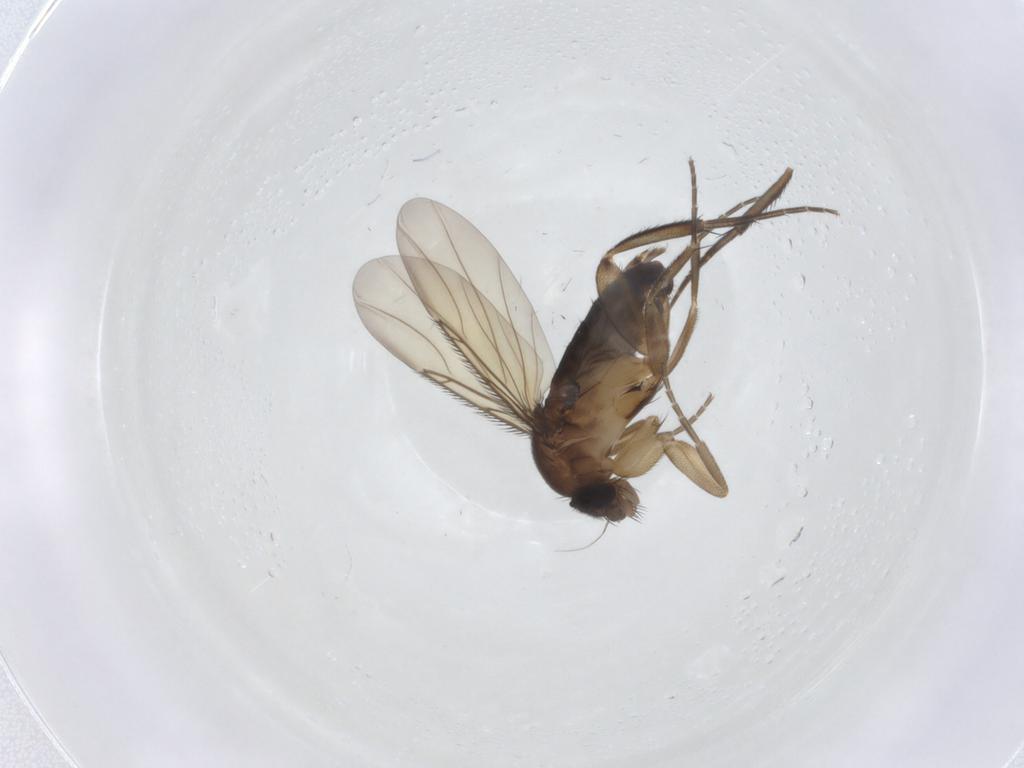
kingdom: Animalia
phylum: Arthropoda
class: Insecta
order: Diptera
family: Phoridae
